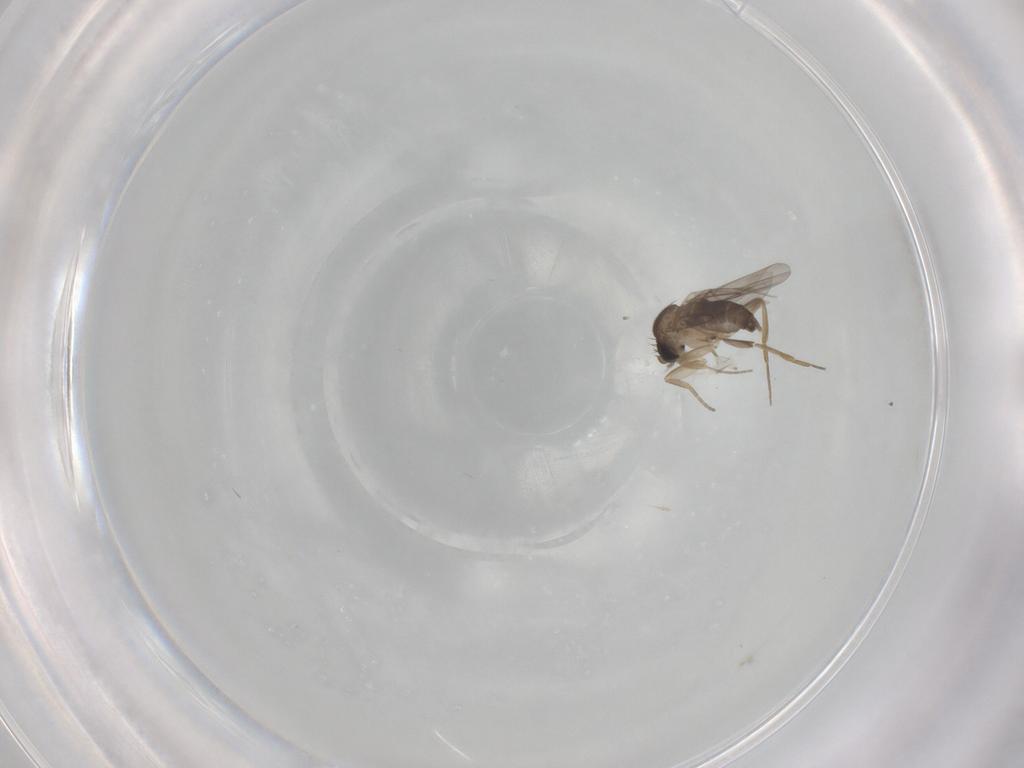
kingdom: Animalia
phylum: Arthropoda
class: Insecta
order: Diptera
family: Phoridae
